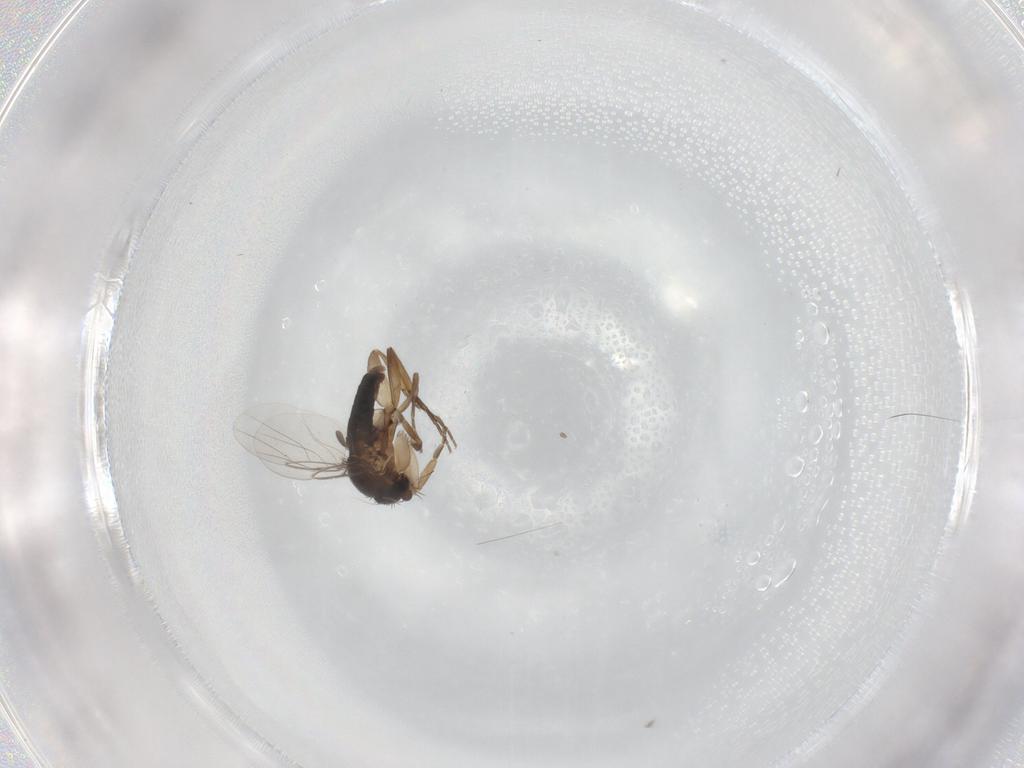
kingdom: Animalia
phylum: Arthropoda
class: Insecta
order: Diptera
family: Phoridae
